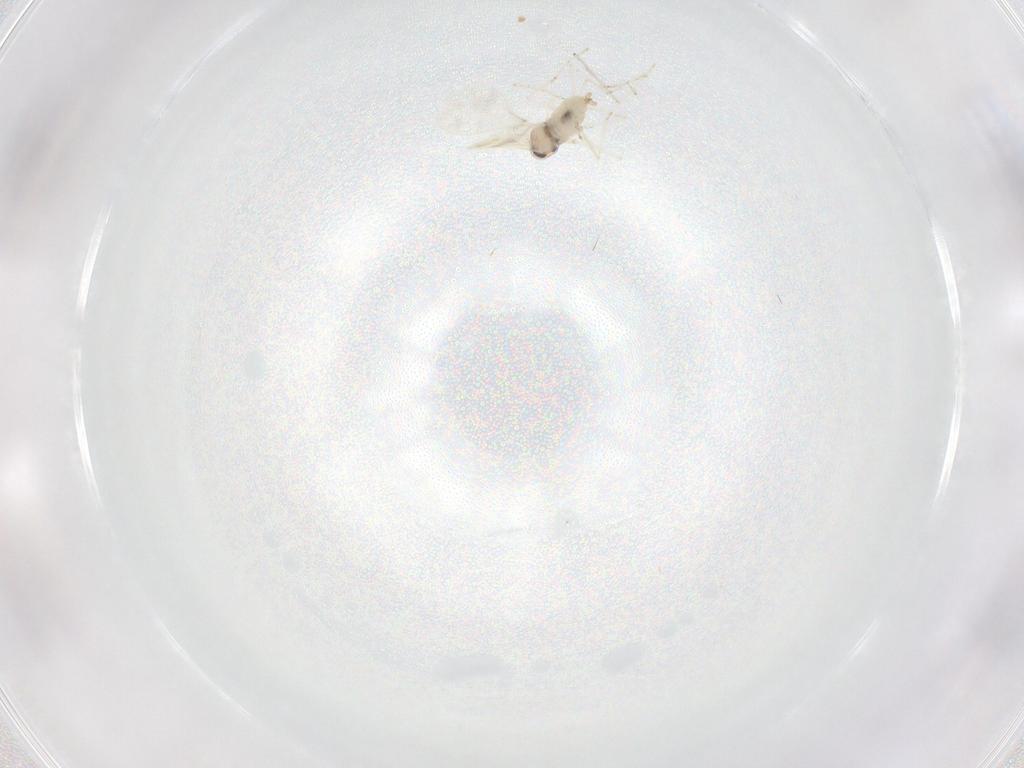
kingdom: Animalia
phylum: Arthropoda
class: Insecta
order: Diptera
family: Cecidomyiidae
